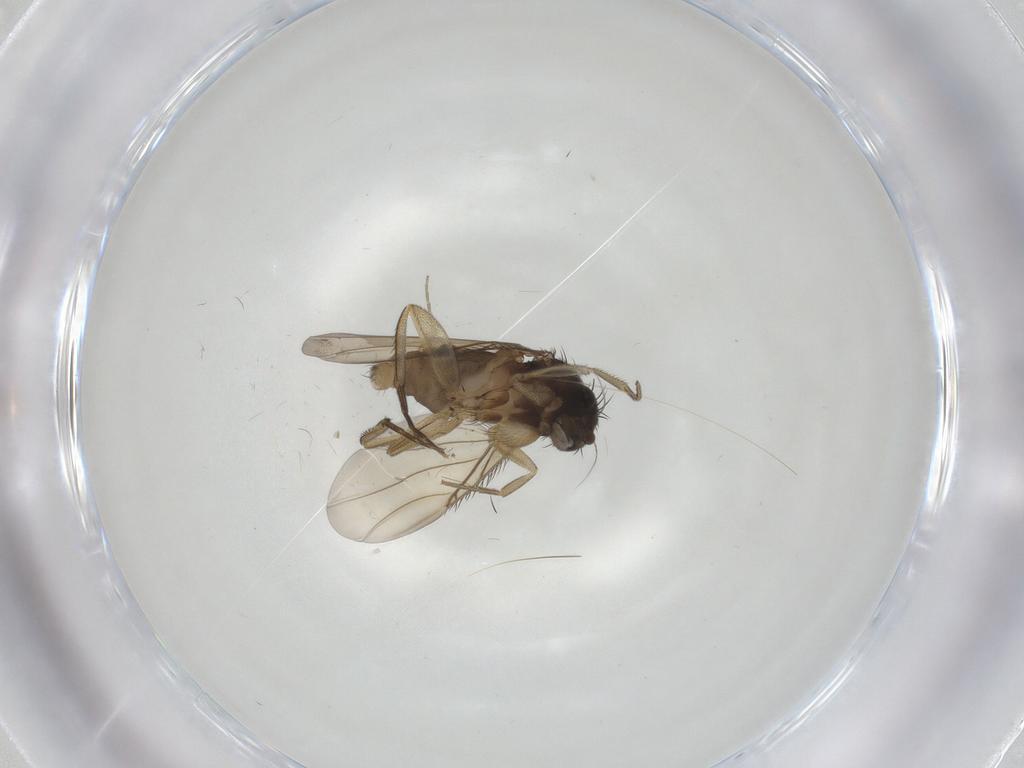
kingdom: Animalia
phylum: Arthropoda
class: Insecta
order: Diptera
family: Phoridae
